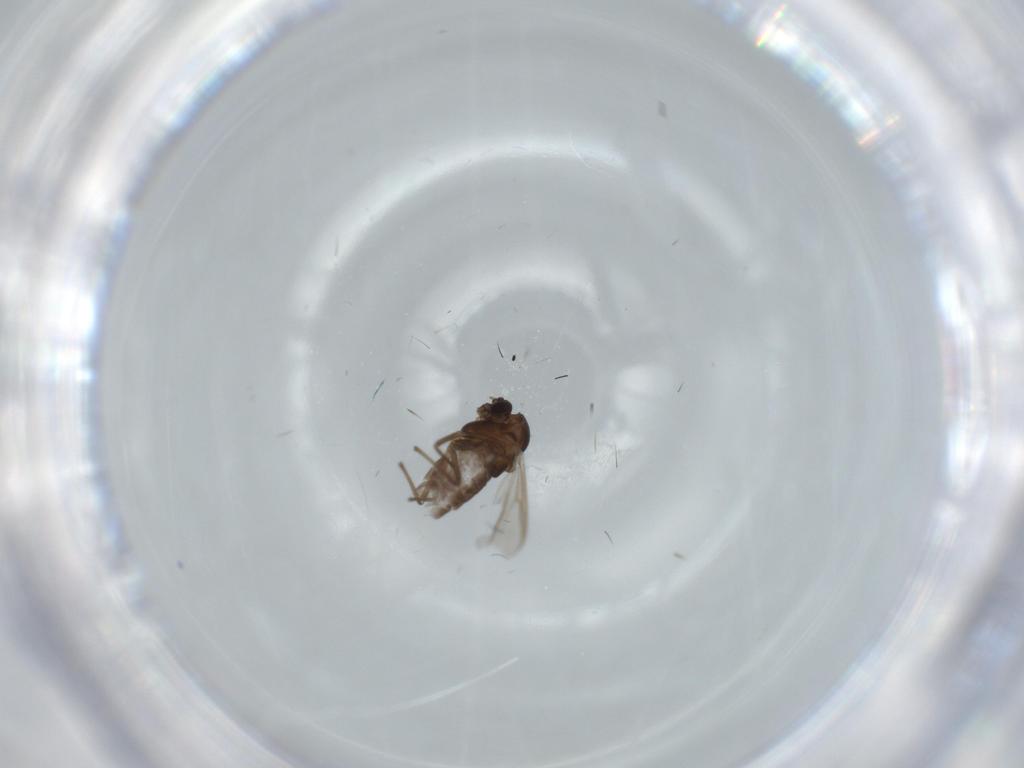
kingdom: Animalia
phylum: Arthropoda
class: Insecta
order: Diptera
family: Chironomidae
